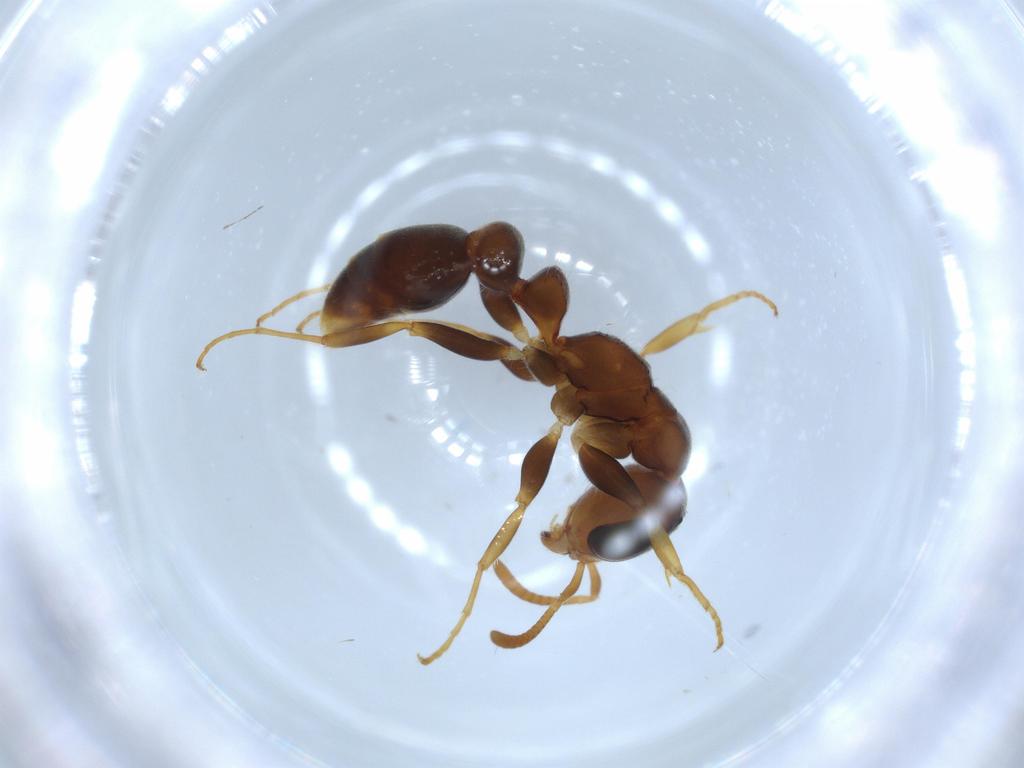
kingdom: Animalia
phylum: Arthropoda
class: Insecta
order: Hymenoptera
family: Formicidae
